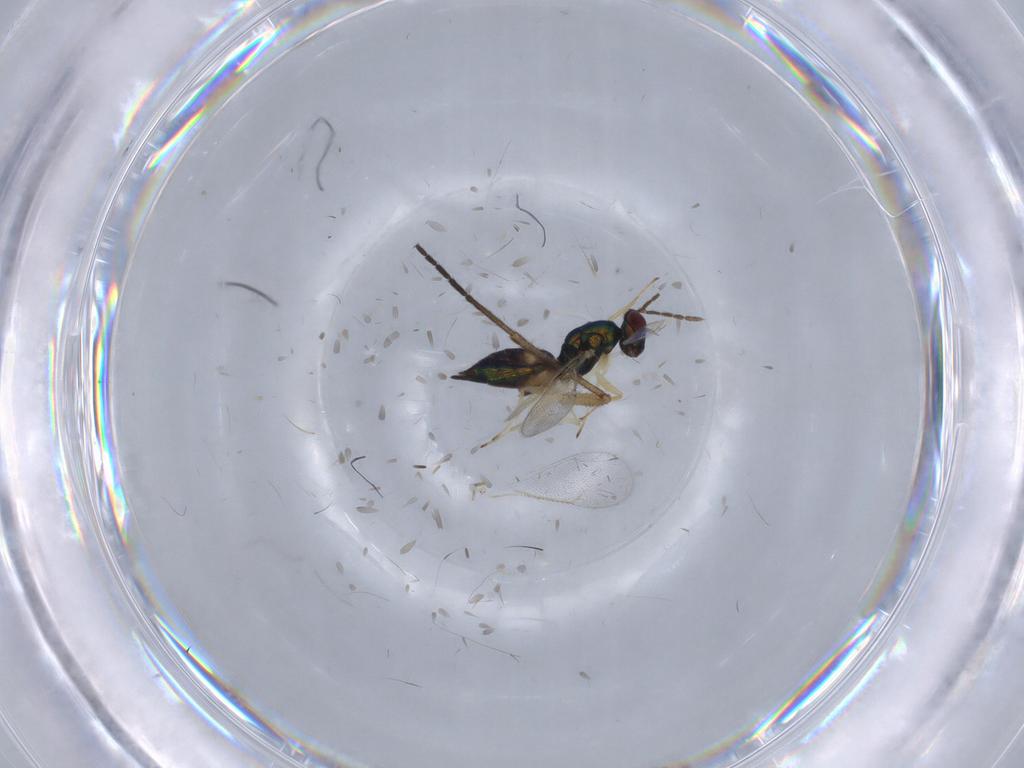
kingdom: Animalia
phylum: Arthropoda
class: Insecta
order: Hymenoptera
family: Eulophidae
